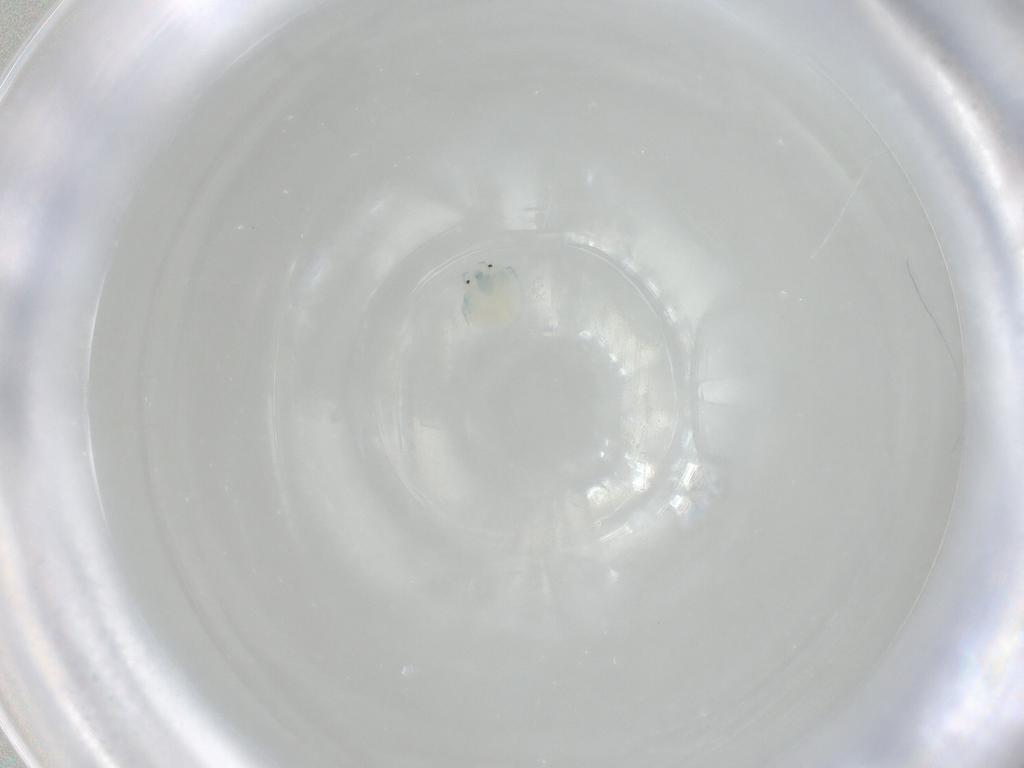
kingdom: Animalia
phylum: Arthropoda
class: Arachnida
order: Trombidiformes
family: Arrenuridae
